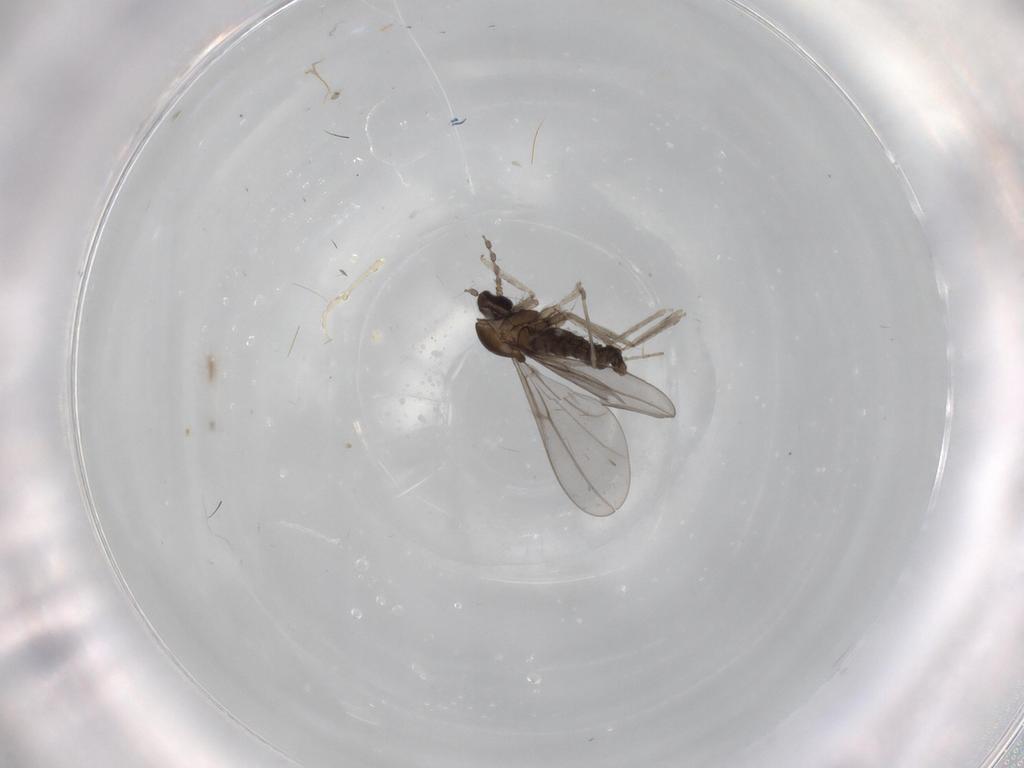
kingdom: Animalia
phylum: Arthropoda
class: Insecta
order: Diptera
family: Cecidomyiidae
